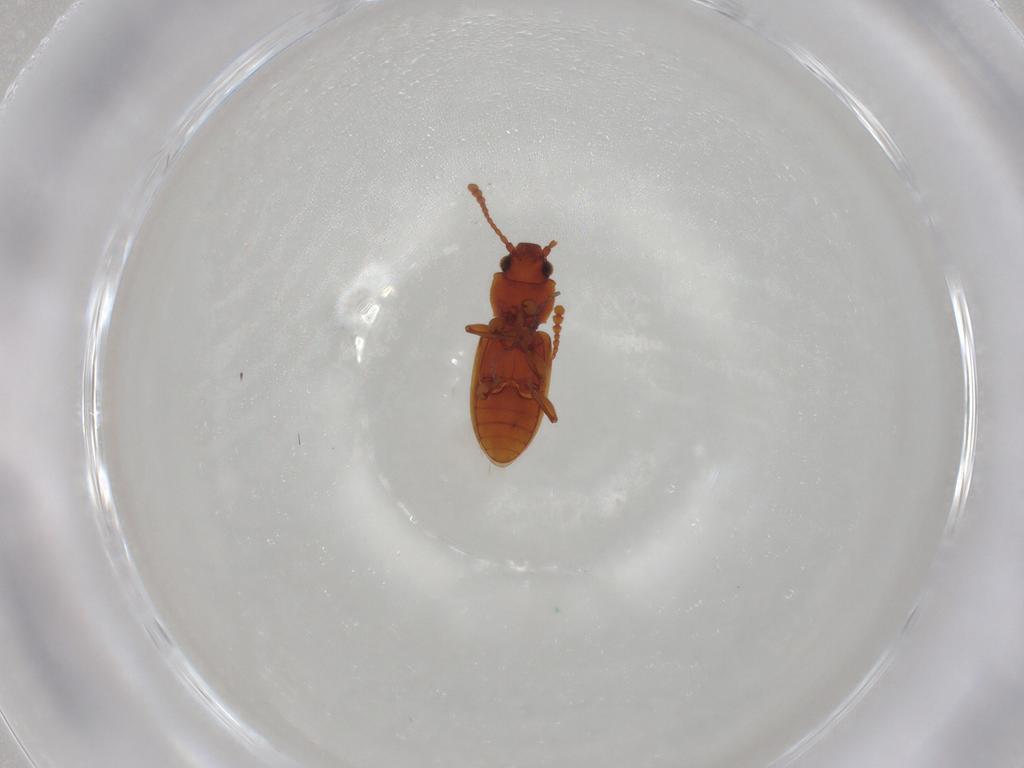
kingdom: Animalia
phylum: Arthropoda
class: Insecta
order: Coleoptera
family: Silvanidae
